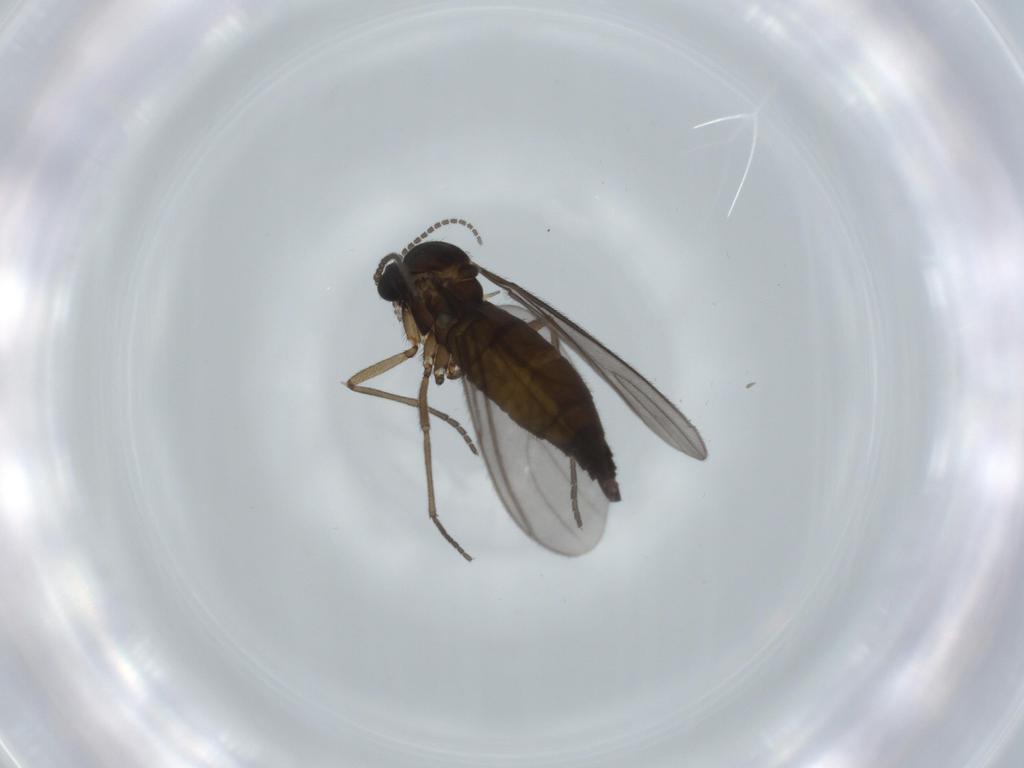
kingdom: Animalia
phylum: Arthropoda
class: Insecta
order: Diptera
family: Sciaridae
